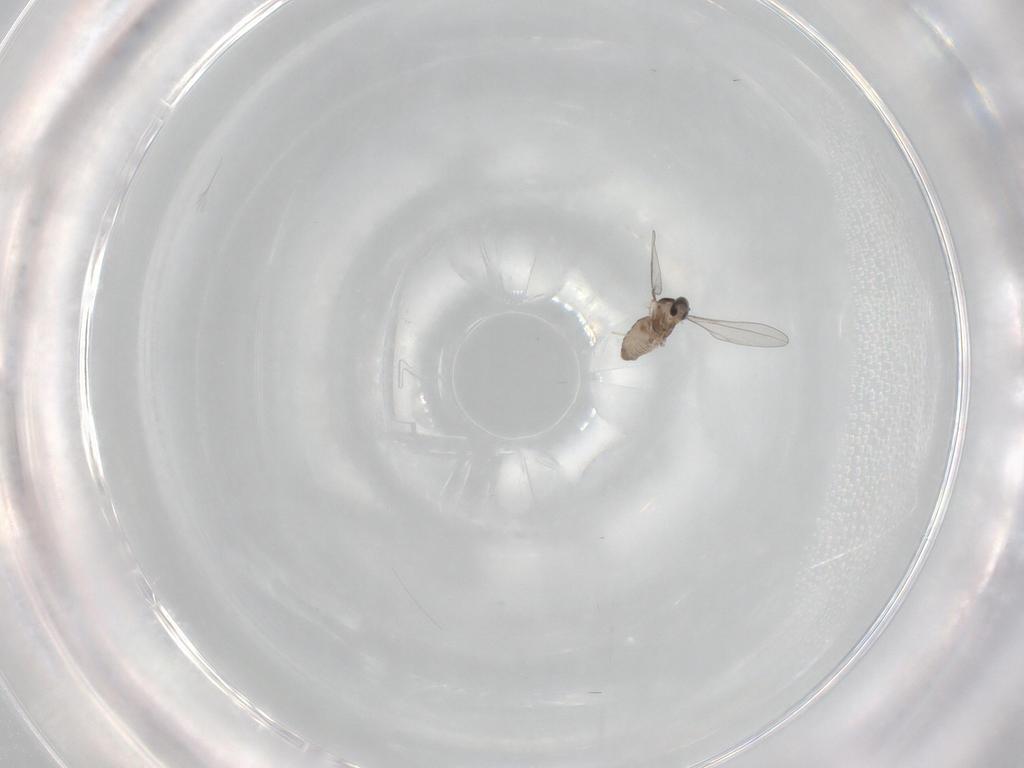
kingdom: Animalia
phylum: Arthropoda
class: Insecta
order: Diptera
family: Cecidomyiidae
